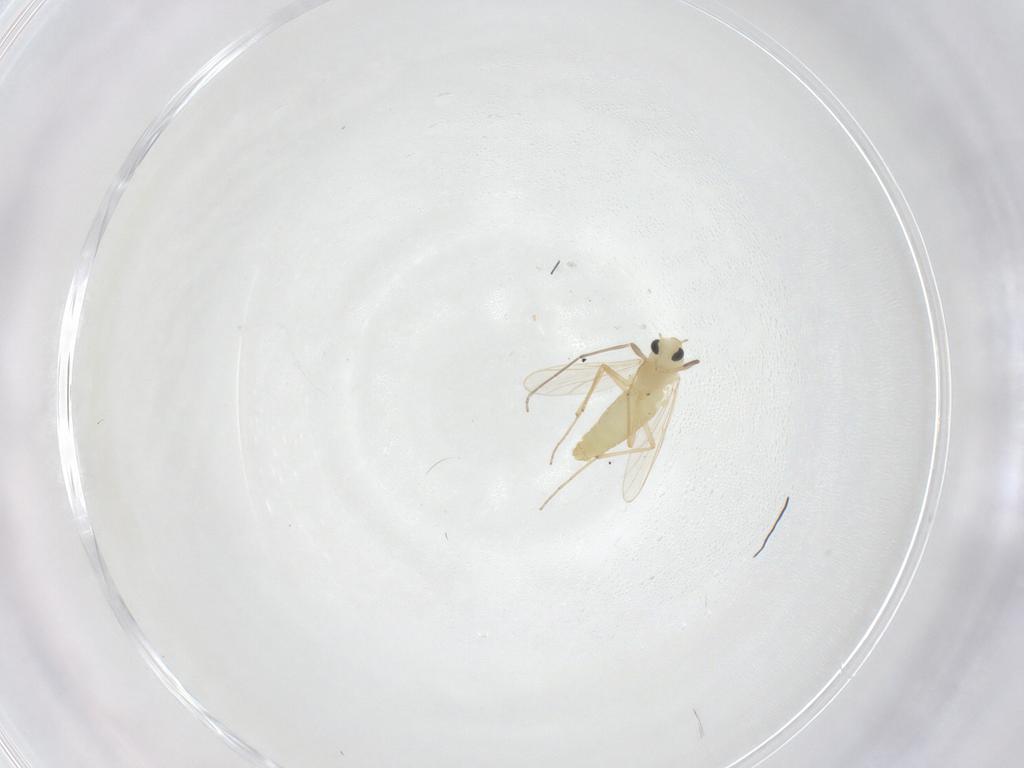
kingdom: Animalia
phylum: Arthropoda
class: Insecta
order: Diptera
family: Chironomidae
